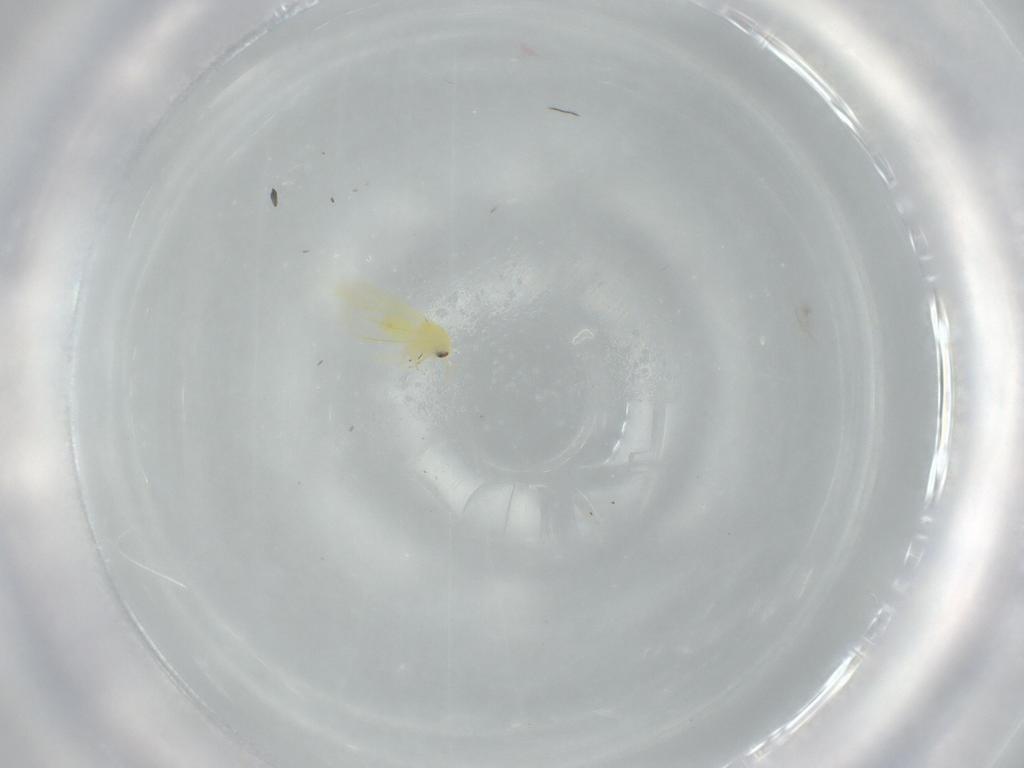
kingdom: Animalia
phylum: Arthropoda
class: Insecta
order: Hemiptera
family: Aleyrodidae
